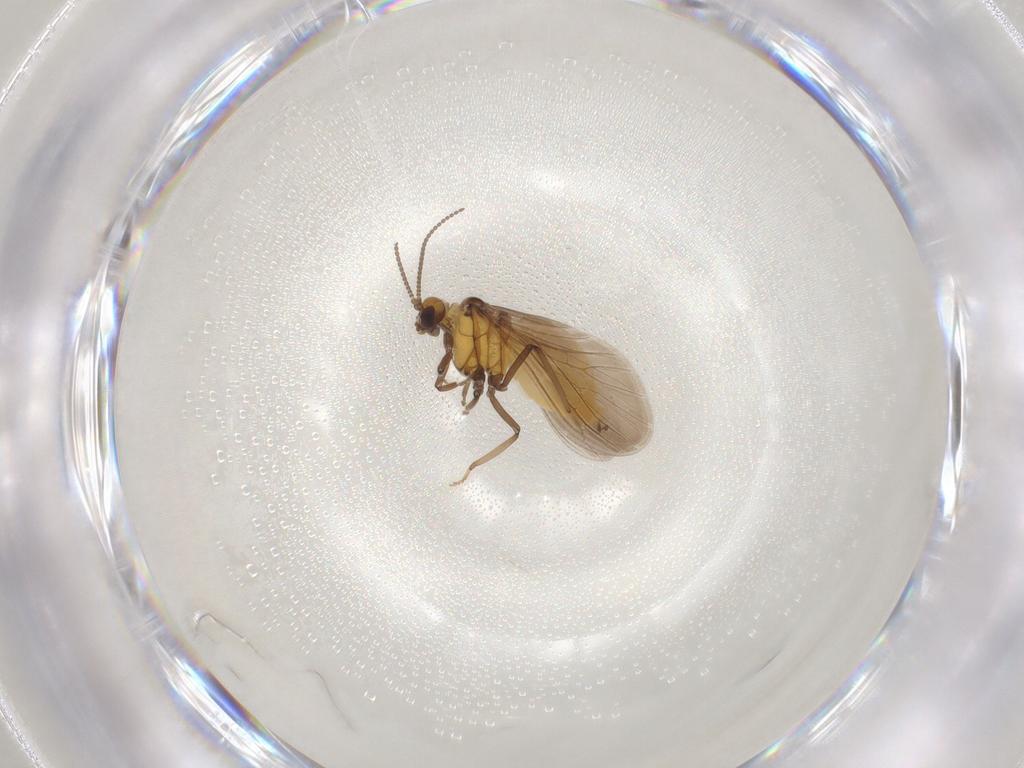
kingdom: Animalia
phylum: Arthropoda
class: Insecta
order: Neuroptera
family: Coniopterygidae
